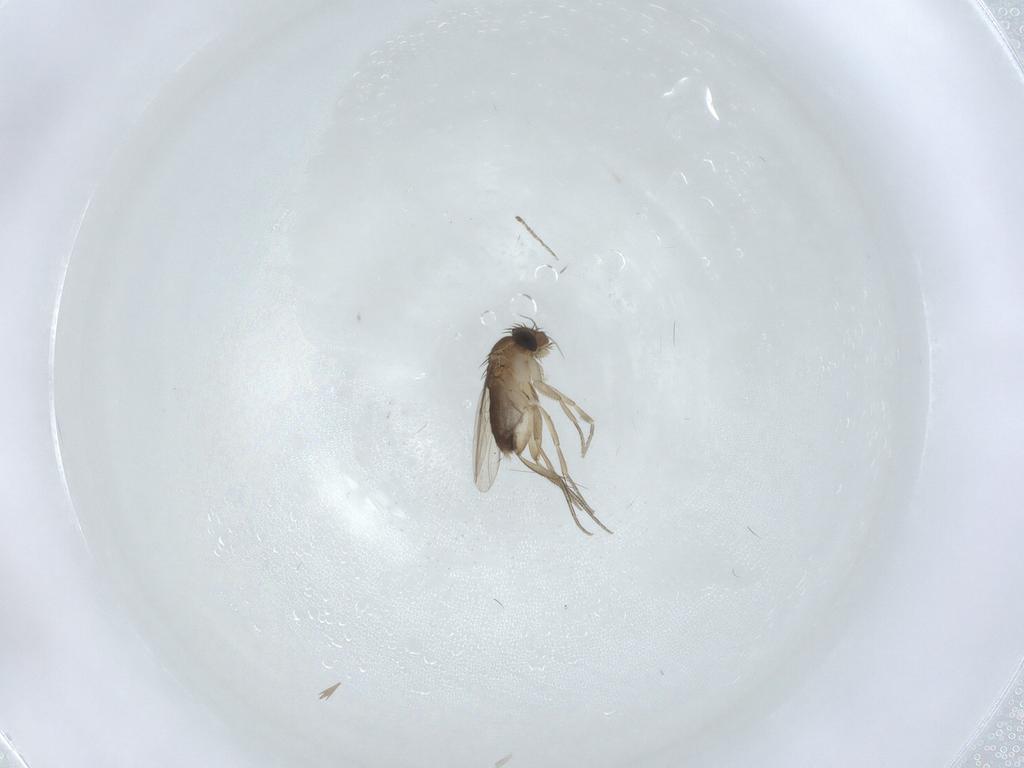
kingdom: Animalia
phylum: Arthropoda
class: Insecta
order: Diptera
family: Phoridae
